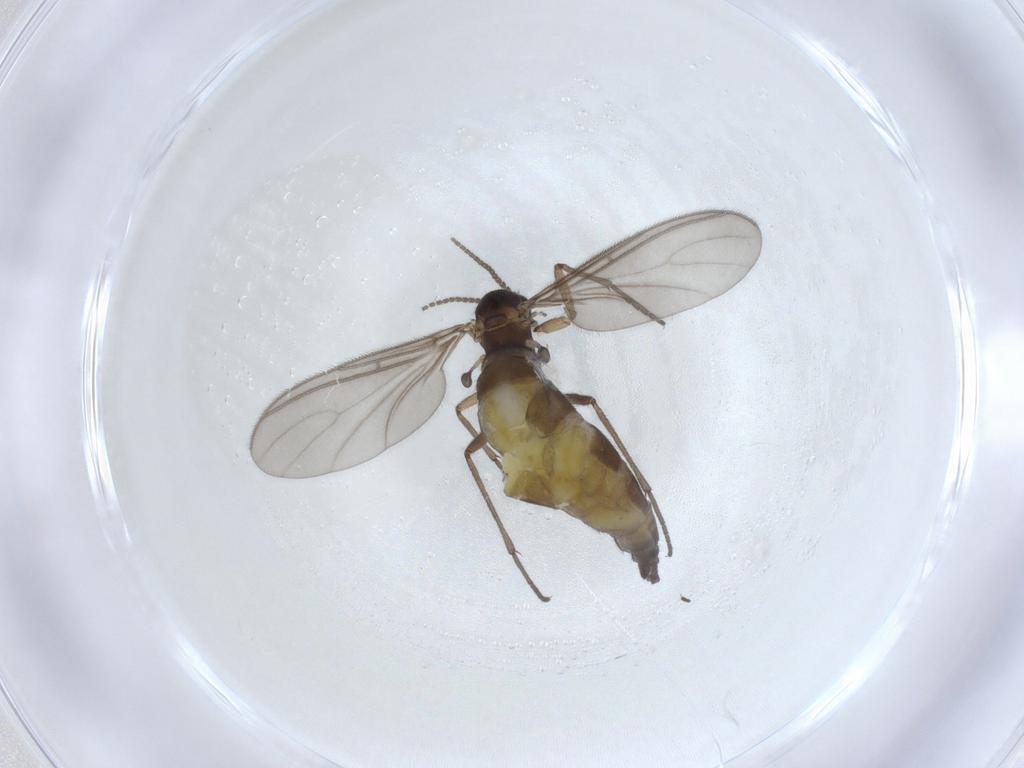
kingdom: Animalia
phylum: Arthropoda
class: Insecta
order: Diptera
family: Sciaridae
